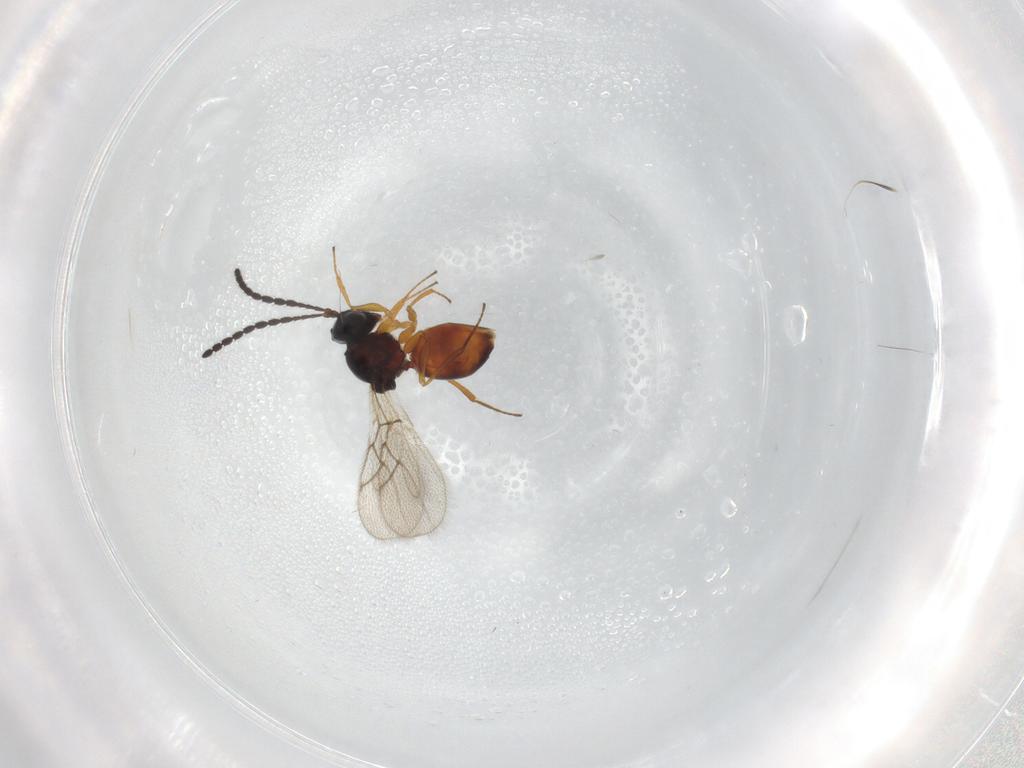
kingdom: Animalia
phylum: Arthropoda
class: Insecta
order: Hymenoptera
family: Figitidae
